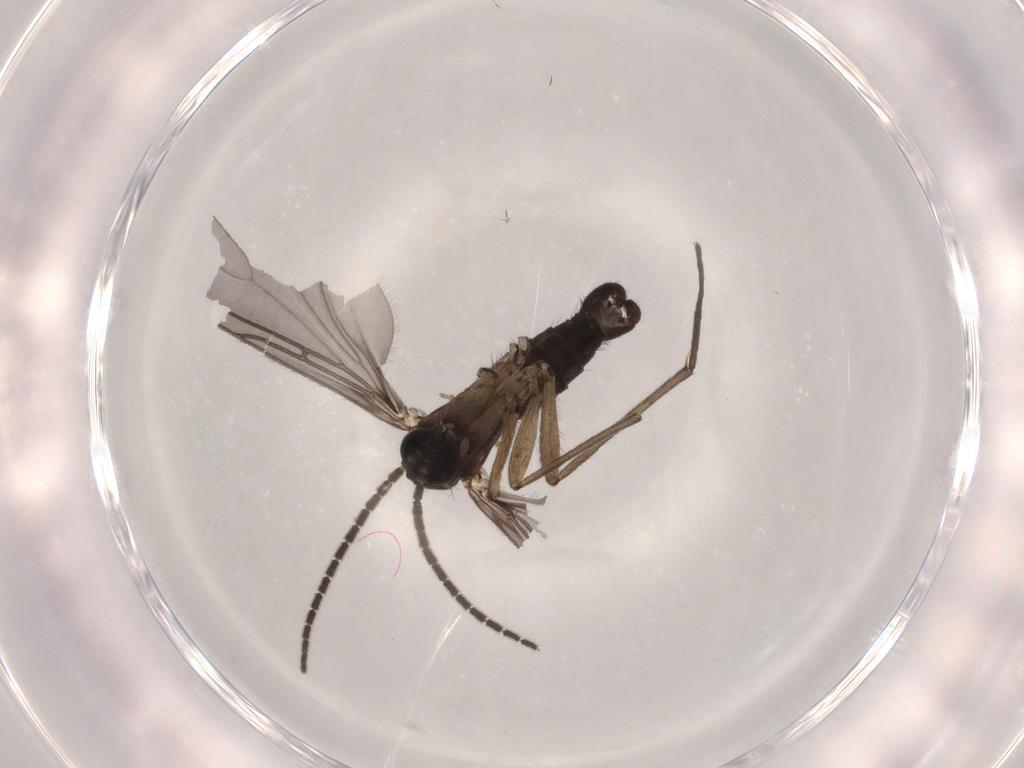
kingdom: Animalia
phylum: Arthropoda
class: Insecta
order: Diptera
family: Sciaridae
